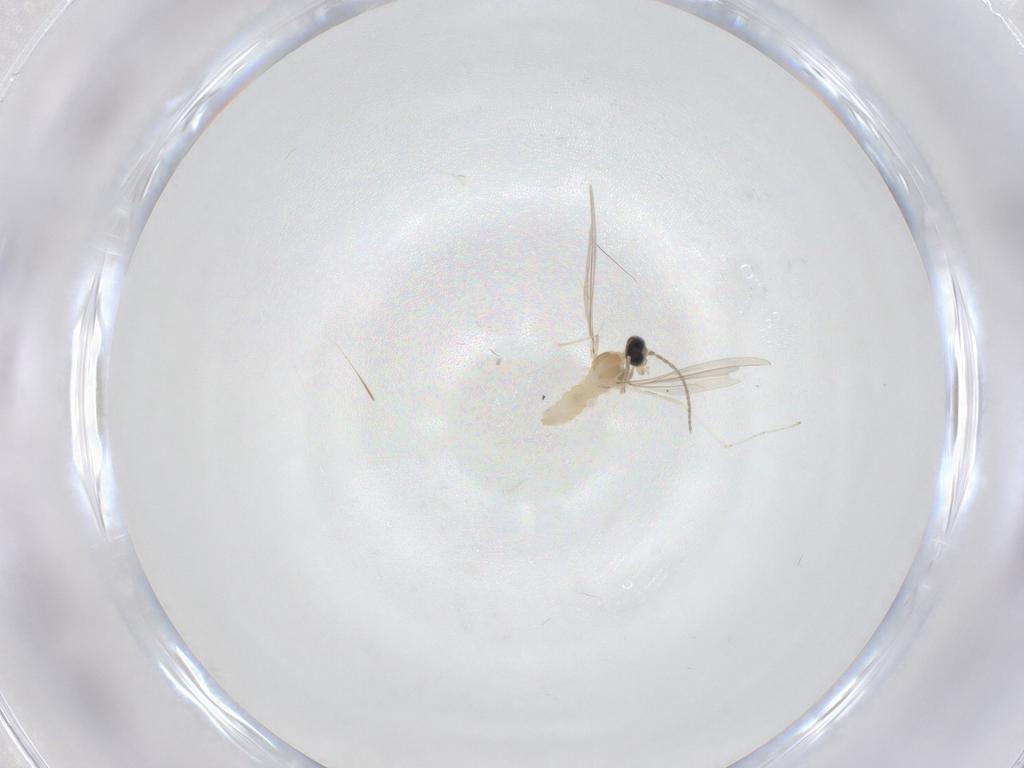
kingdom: Animalia
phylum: Arthropoda
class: Insecta
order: Diptera
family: Cecidomyiidae
